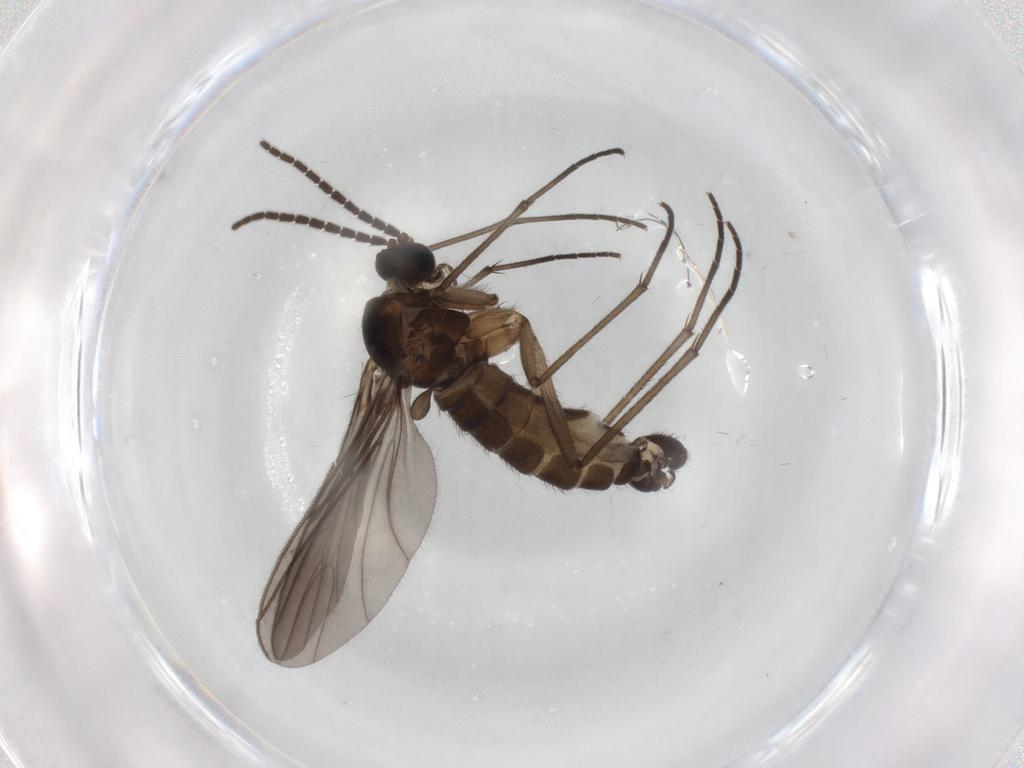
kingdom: Animalia
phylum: Arthropoda
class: Insecta
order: Diptera
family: Sciaridae
